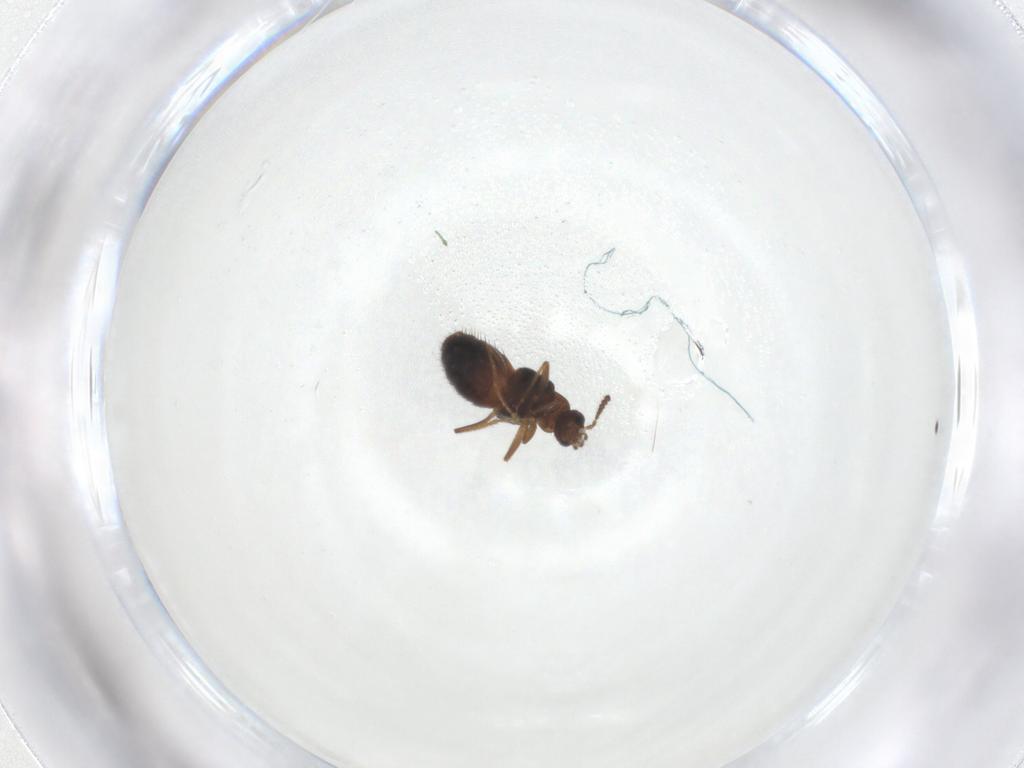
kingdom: Animalia
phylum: Arthropoda
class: Insecta
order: Coleoptera
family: Staphylinidae
